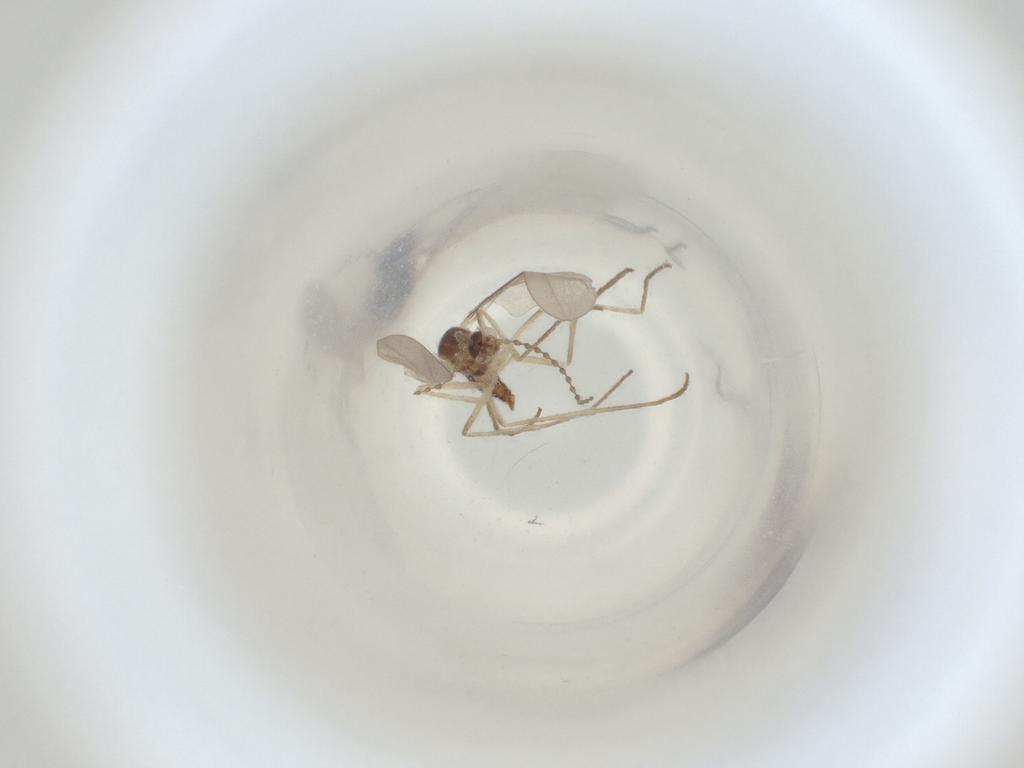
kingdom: Animalia
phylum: Arthropoda
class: Insecta
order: Diptera
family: Cecidomyiidae
